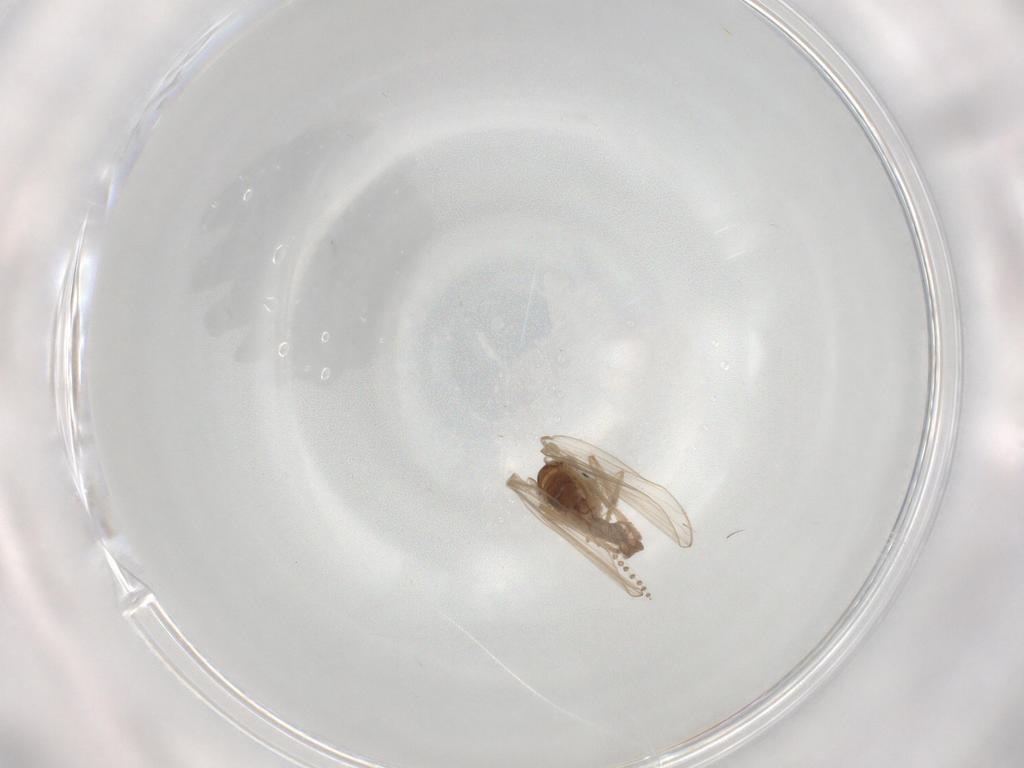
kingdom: Animalia
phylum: Arthropoda
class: Insecta
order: Diptera
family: Psychodidae
